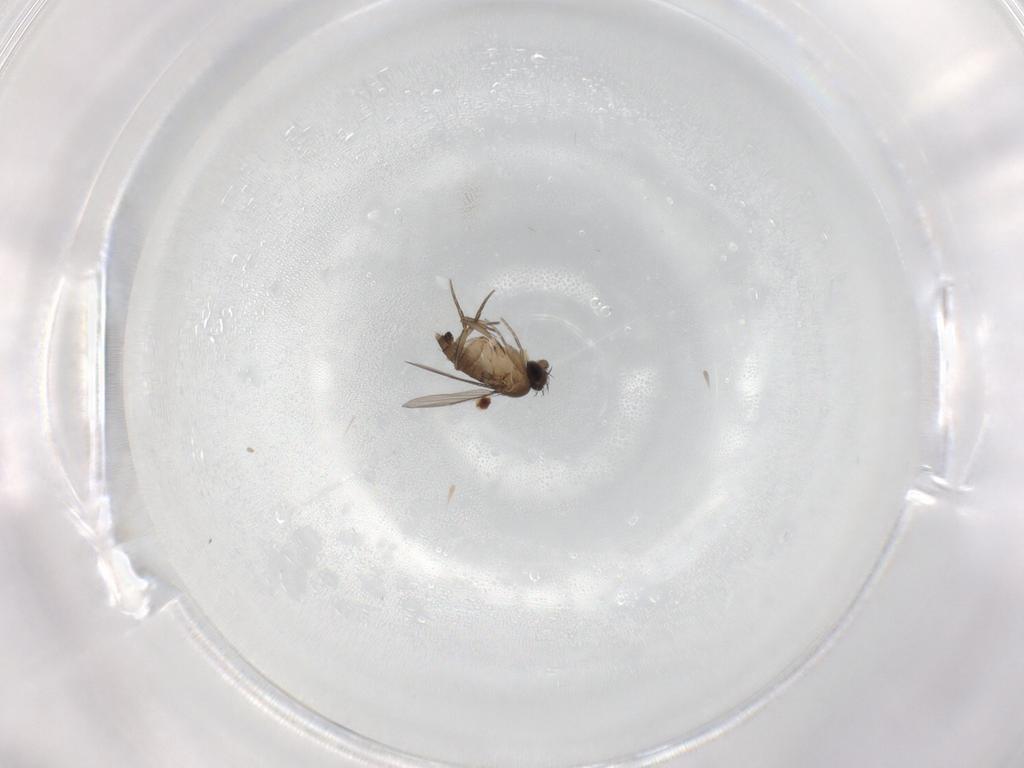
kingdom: Animalia
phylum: Arthropoda
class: Insecta
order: Diptera
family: Phoridae
